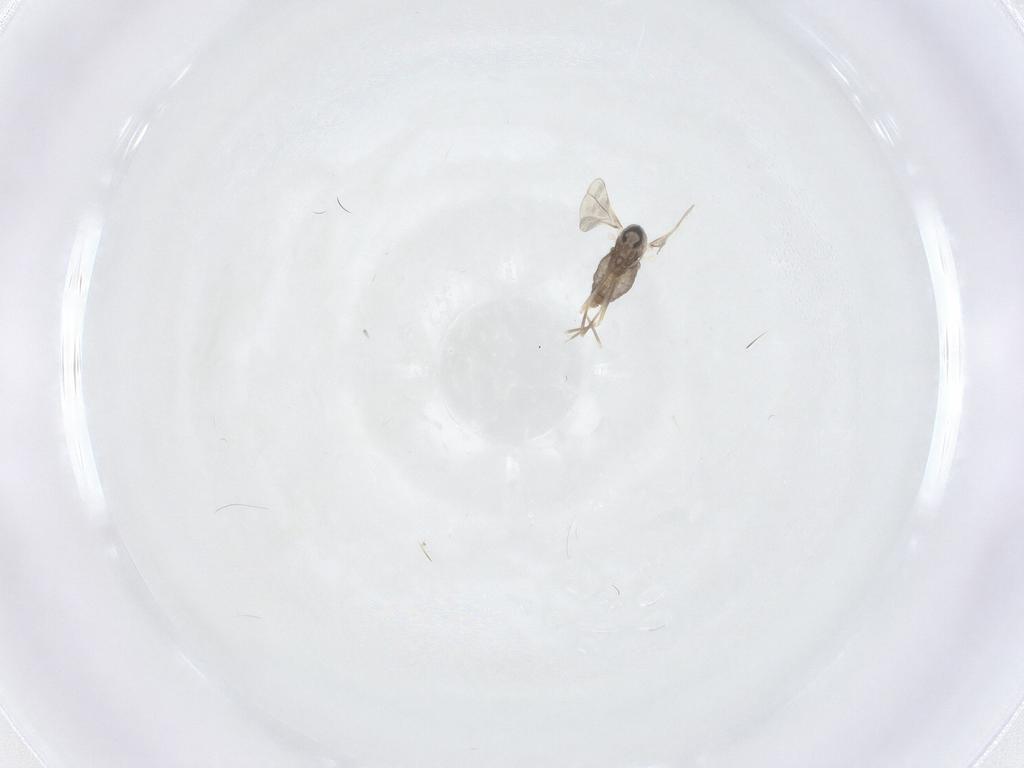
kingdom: Animalia
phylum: Arthropoda
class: Insecta
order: Diptera
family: Cecidomyiidae
